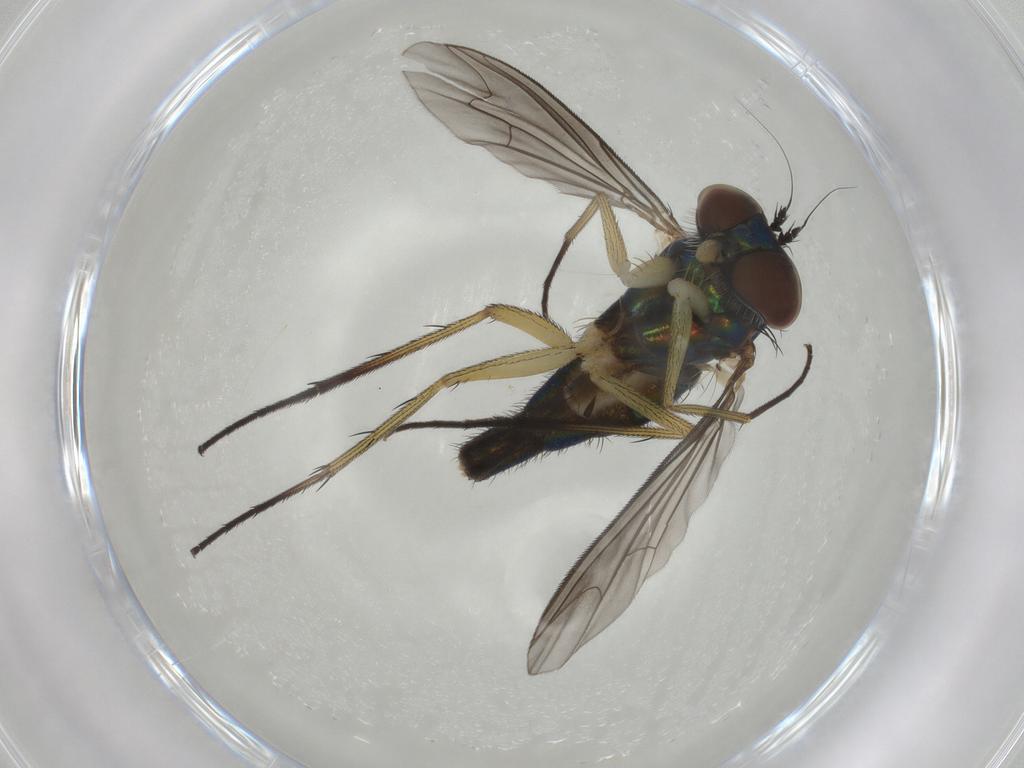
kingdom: Animalia
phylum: Arthropoda
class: Insecta
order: Diptera
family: Dolichopodidae
